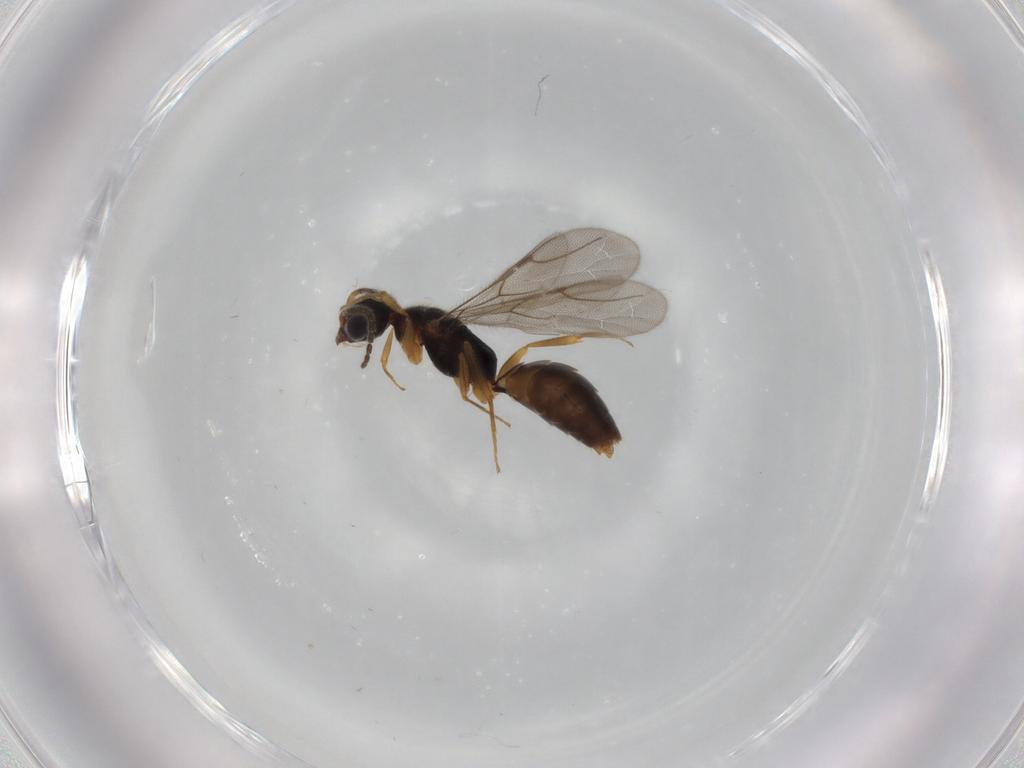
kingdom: Animalia
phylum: Arthropoda
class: Insecta
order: Hymenoptera
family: Bethylidae
